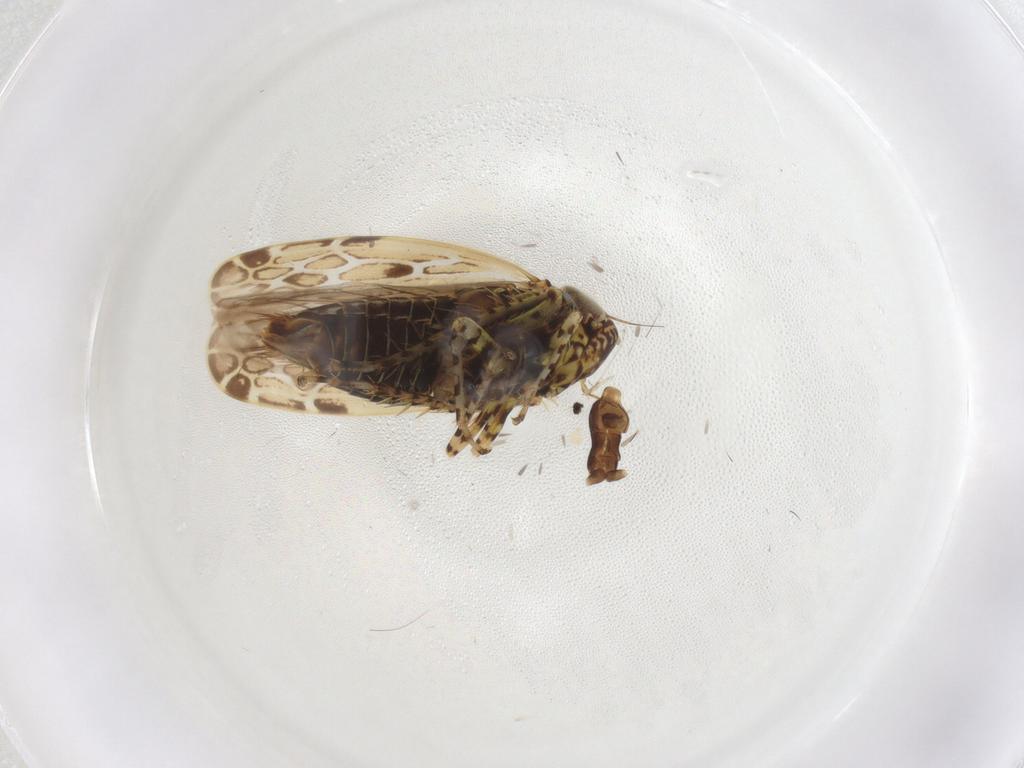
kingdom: Animalia
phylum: Arthropoda
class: Insecta
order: Hemiptera
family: Cicadellidae
